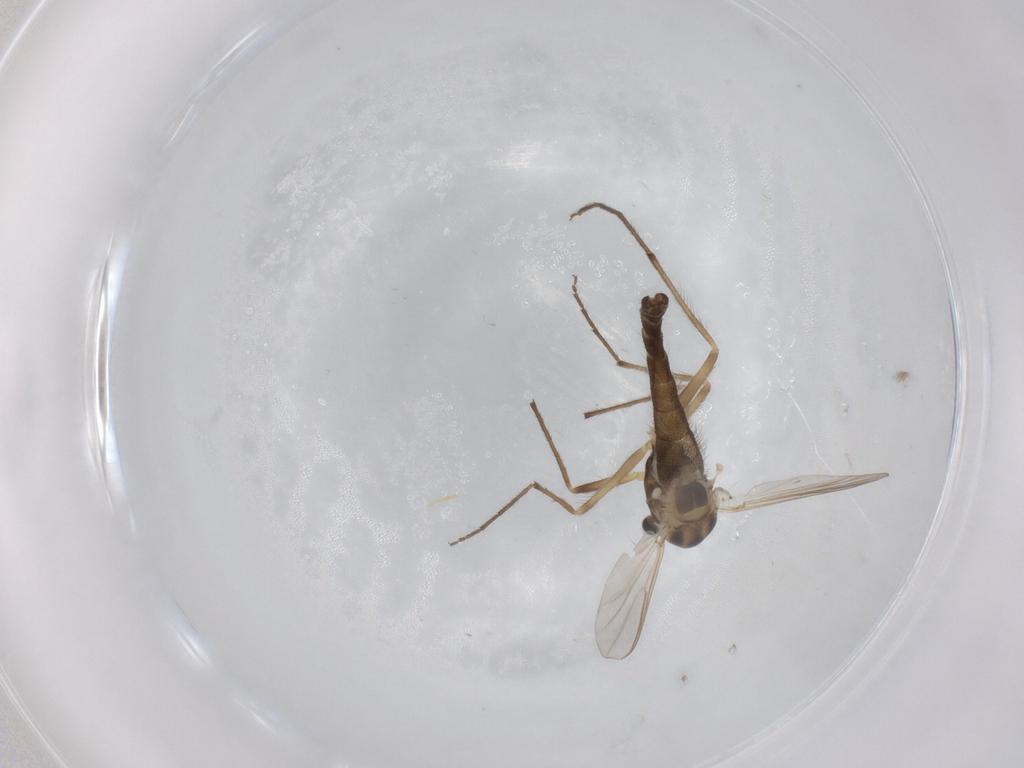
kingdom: Animalia
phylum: Arthropoda
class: Insecta
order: Diptera
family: Chironomidae
